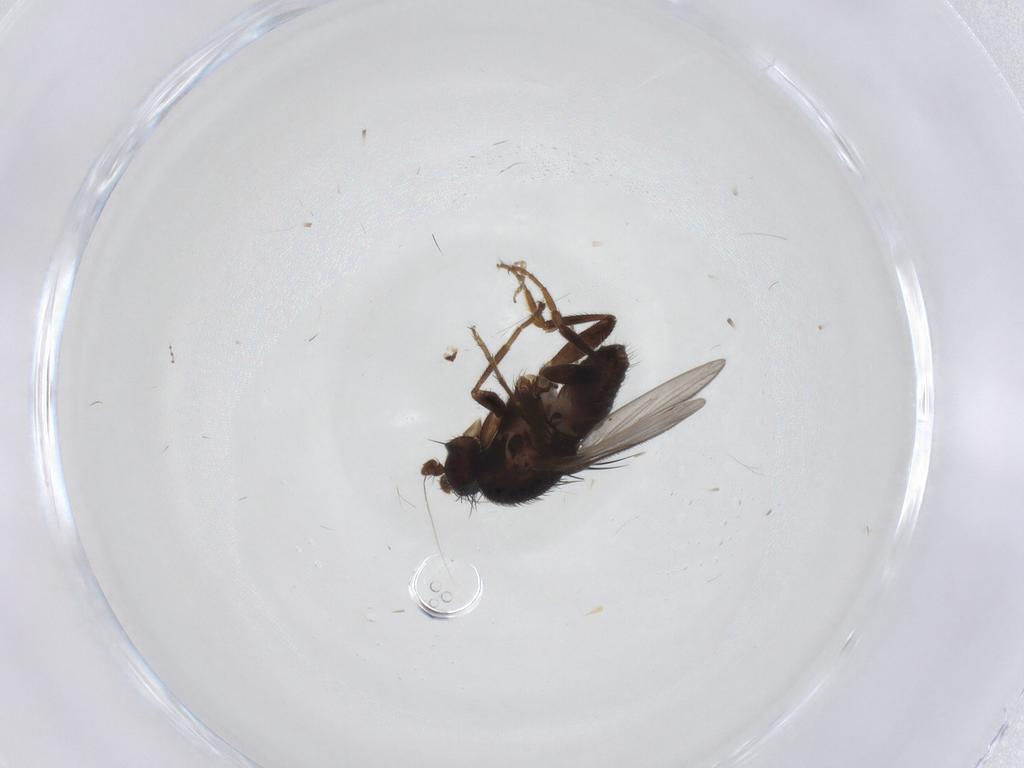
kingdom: Animalia
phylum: Arthropoda
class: Insecta
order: Diptera
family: Sphaeroceridae
